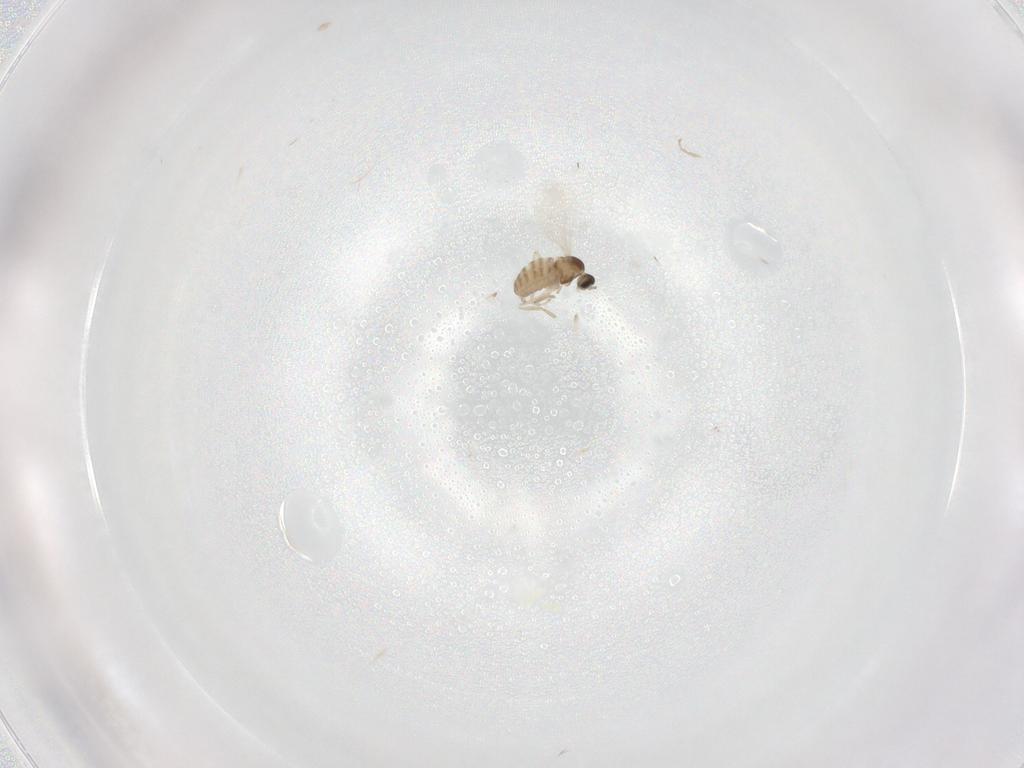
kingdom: Animalia
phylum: Arthropoda
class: Insecta
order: Diptera
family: Cecidomyiidae
